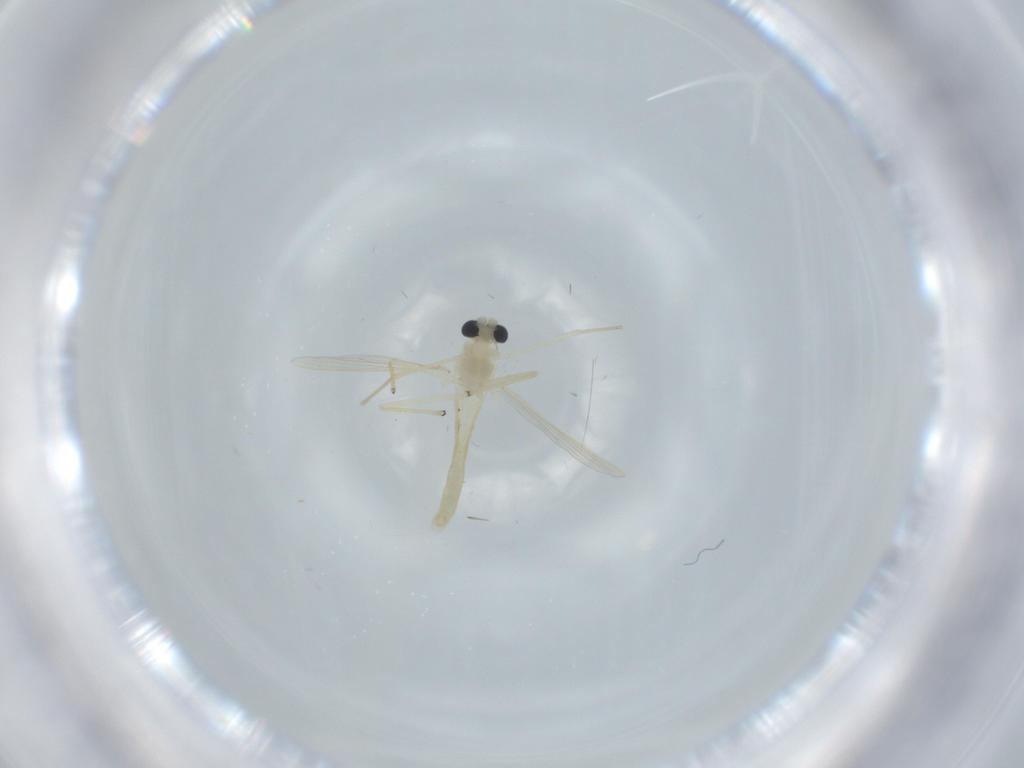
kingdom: Animalia
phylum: Arthropoda
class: Insecta
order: Diptera
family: Chironomidae
